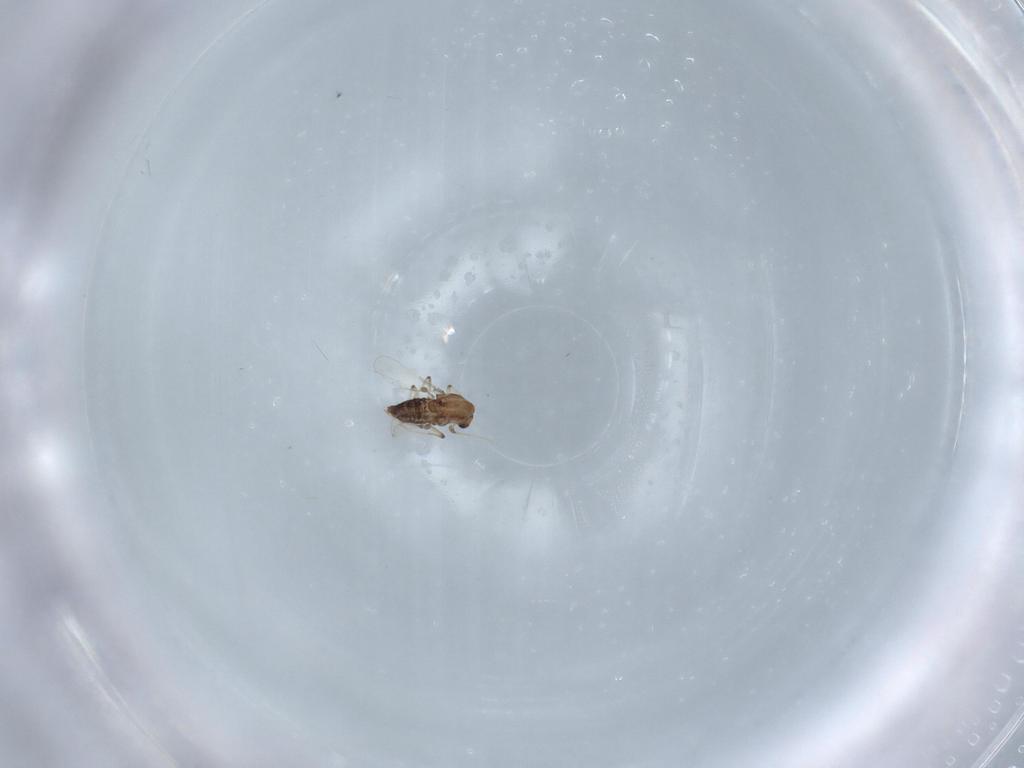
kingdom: Animalia
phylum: Arthropoda
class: Insecta
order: Diptera
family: Chironomidae
